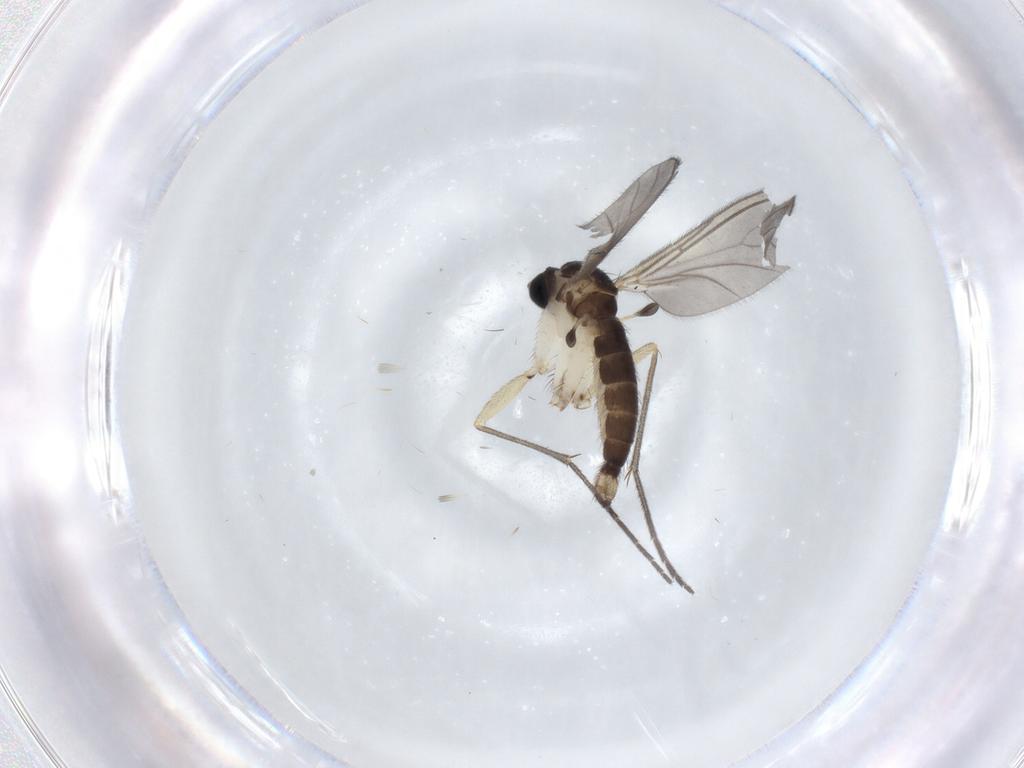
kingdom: Animalia
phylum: Arthropoda
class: Insecta
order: Diptera
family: Sciaridae
